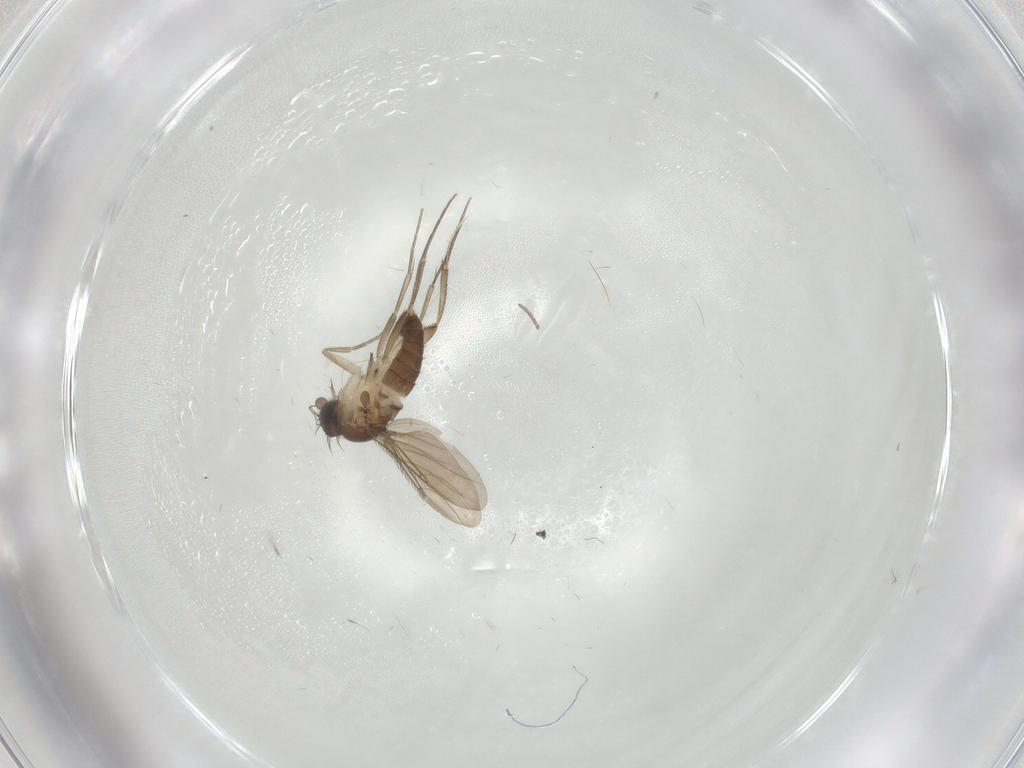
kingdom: Animalia
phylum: Arthropoda
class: Insecta
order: Diptera
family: Phoridae
